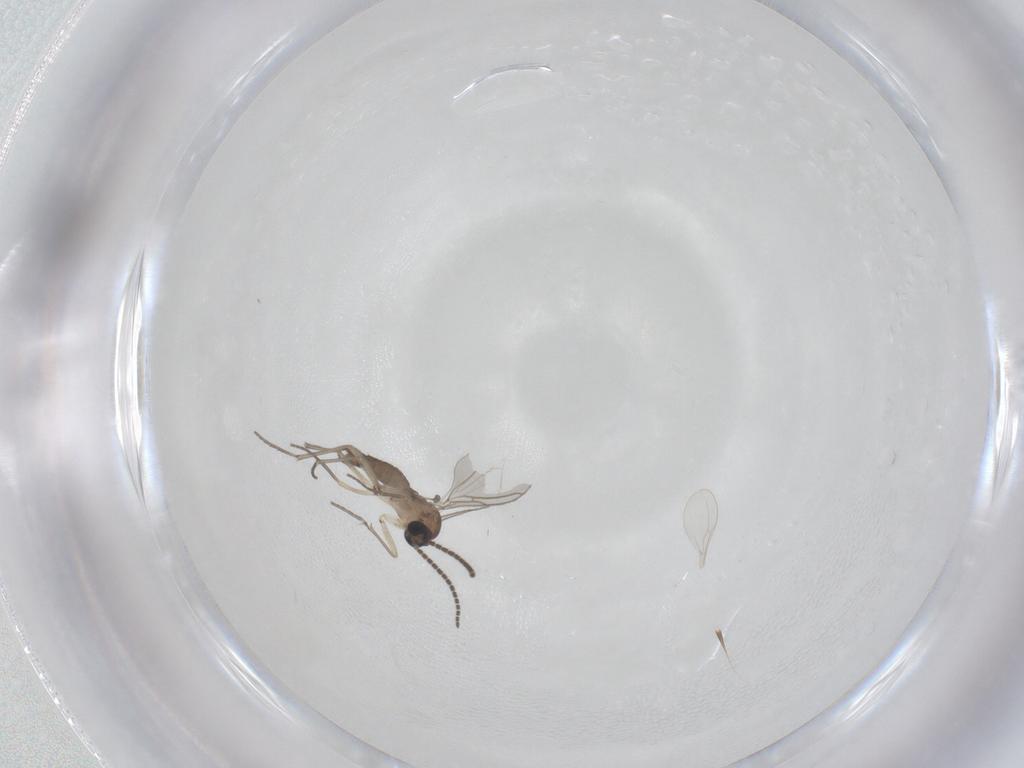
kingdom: Animalia
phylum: Arthropoda
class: Insecta
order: Diptera
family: Sciaridae
